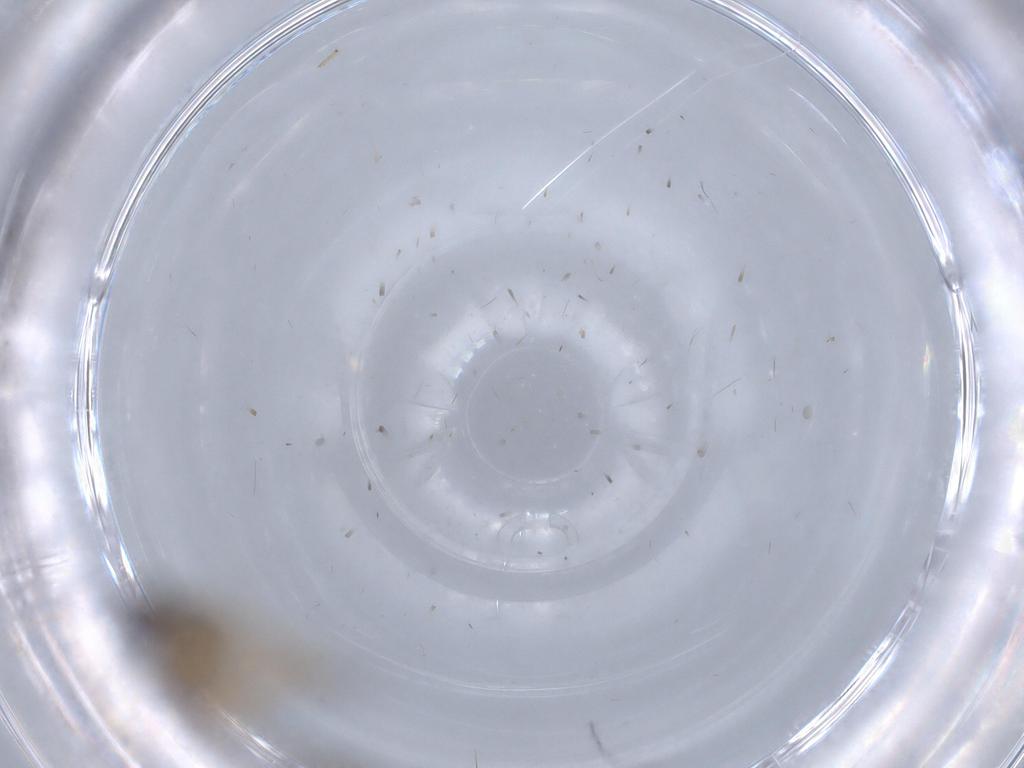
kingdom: Animalia
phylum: Arthropoda
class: Insecta
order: Diptera
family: Ceratopogonidae
